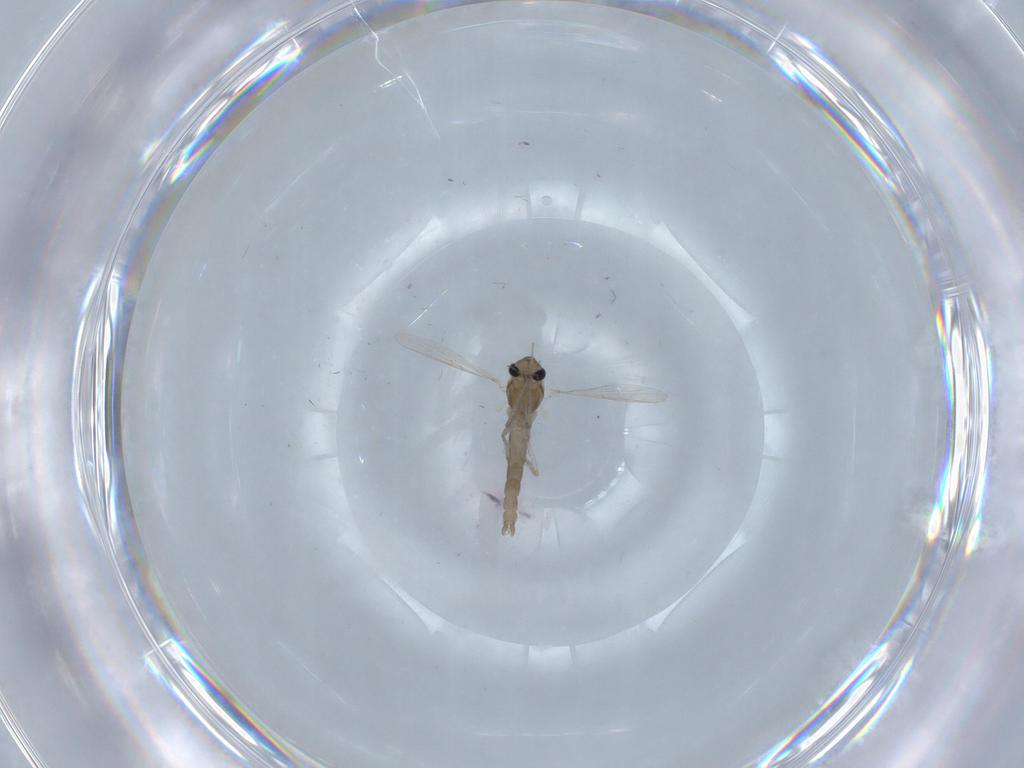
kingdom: Animalia
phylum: Arthropoda
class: Insecta
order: Diptera
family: Chironomidae
